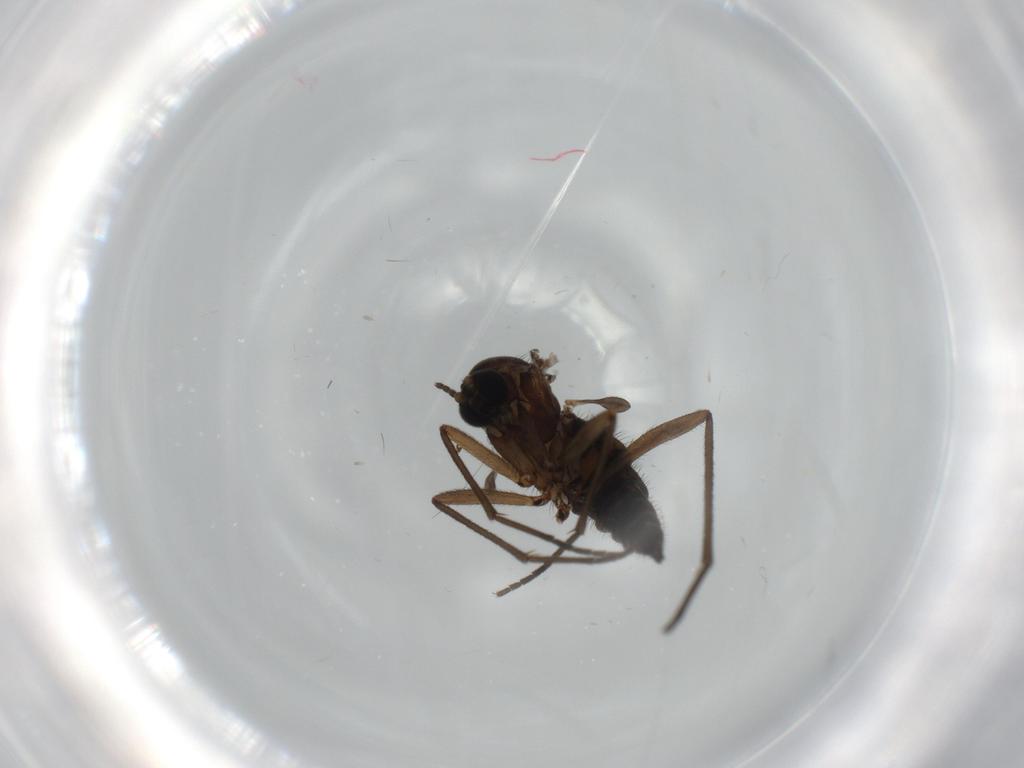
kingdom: Animalia
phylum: Arthropoda
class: Insecta
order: Diptera
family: Sciaridae
